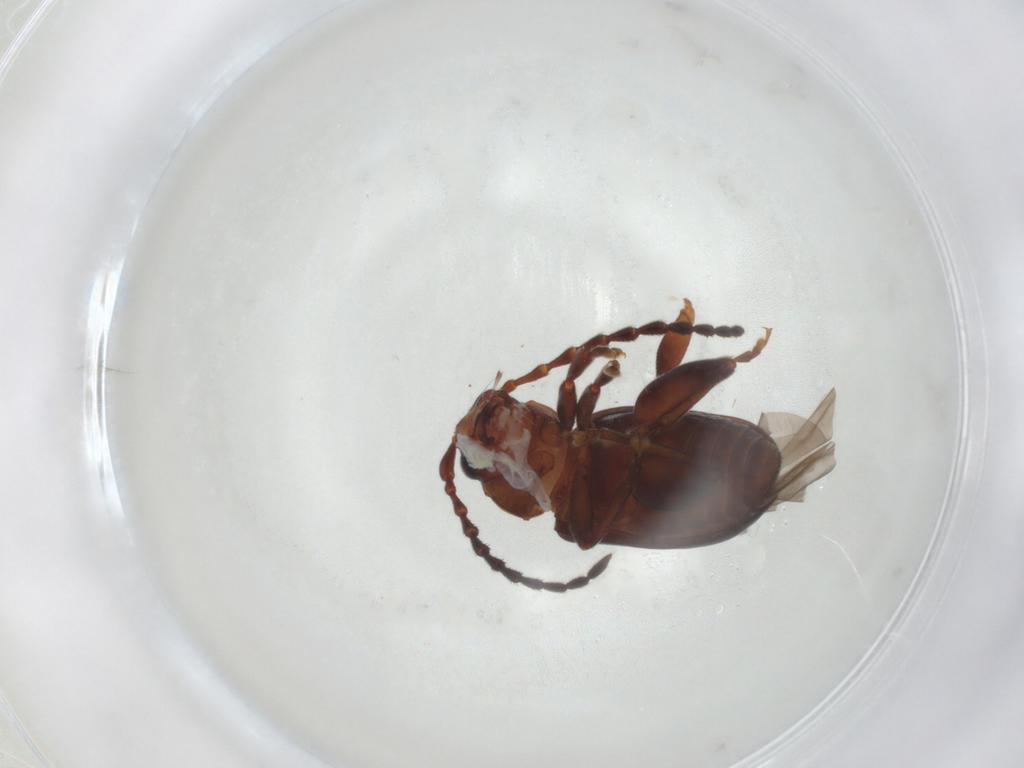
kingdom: Animalia
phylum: Arthropoda
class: Insecta
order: Coleoptera
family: Chrysomelidae
